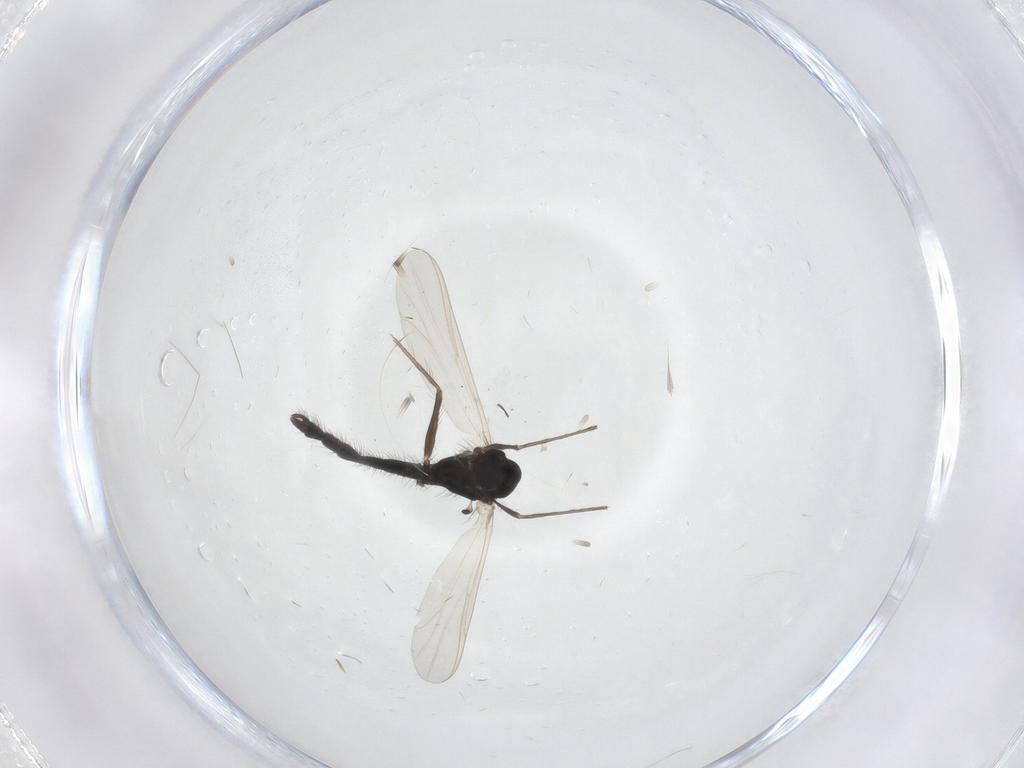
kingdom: Animalia
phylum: Arthropoda
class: Insecta
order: Diptera
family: Chironomidae
